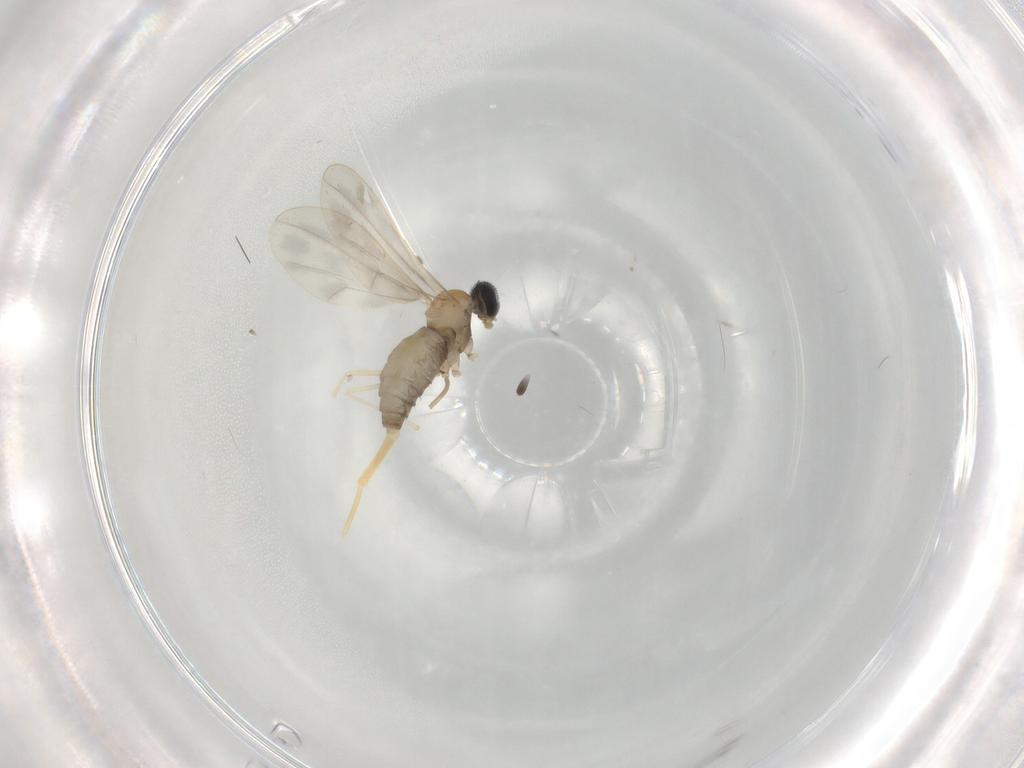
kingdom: Animalia
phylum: Arthropoda
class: Insecta
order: Diptera
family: Cecidomyiidae
